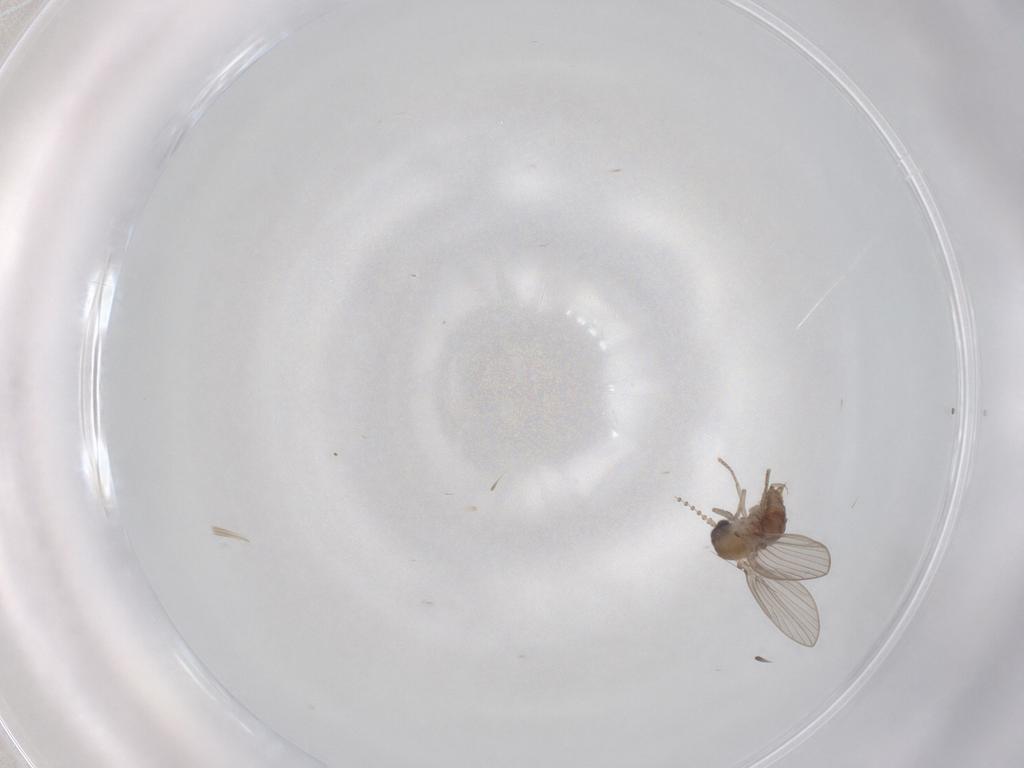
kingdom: Animalia
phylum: Arthropoda
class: Insecta
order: Diptera
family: Psychodidae
